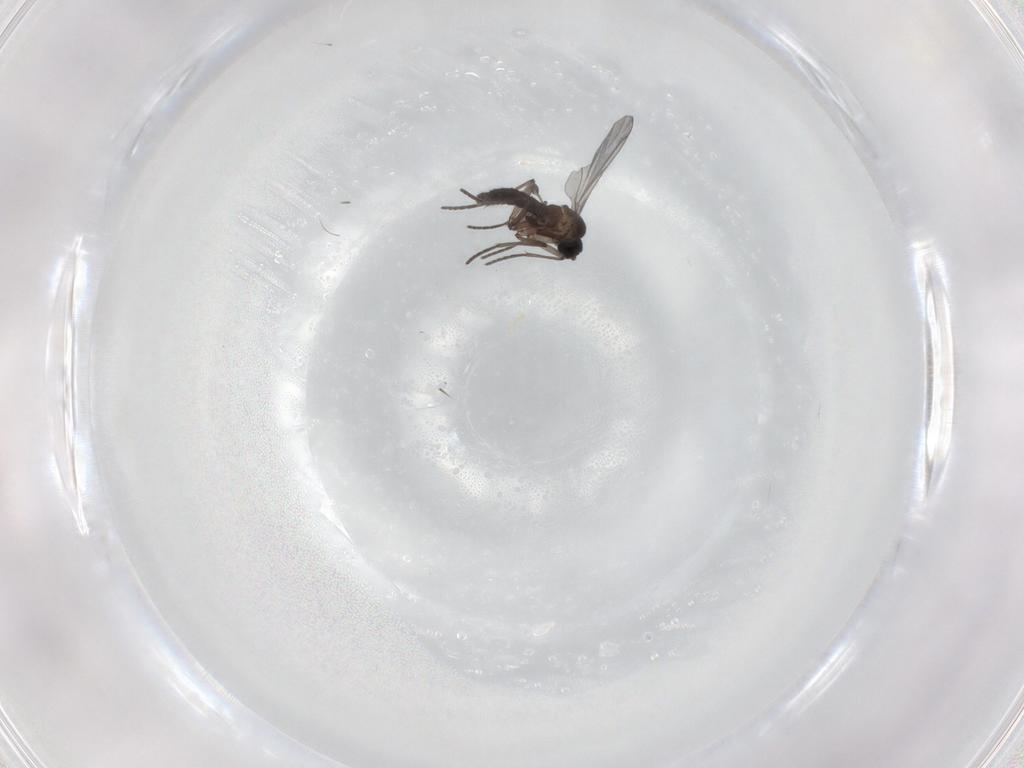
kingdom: Animalia
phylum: Arthropoda
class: Insecta
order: Diptera
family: Sciaridae
